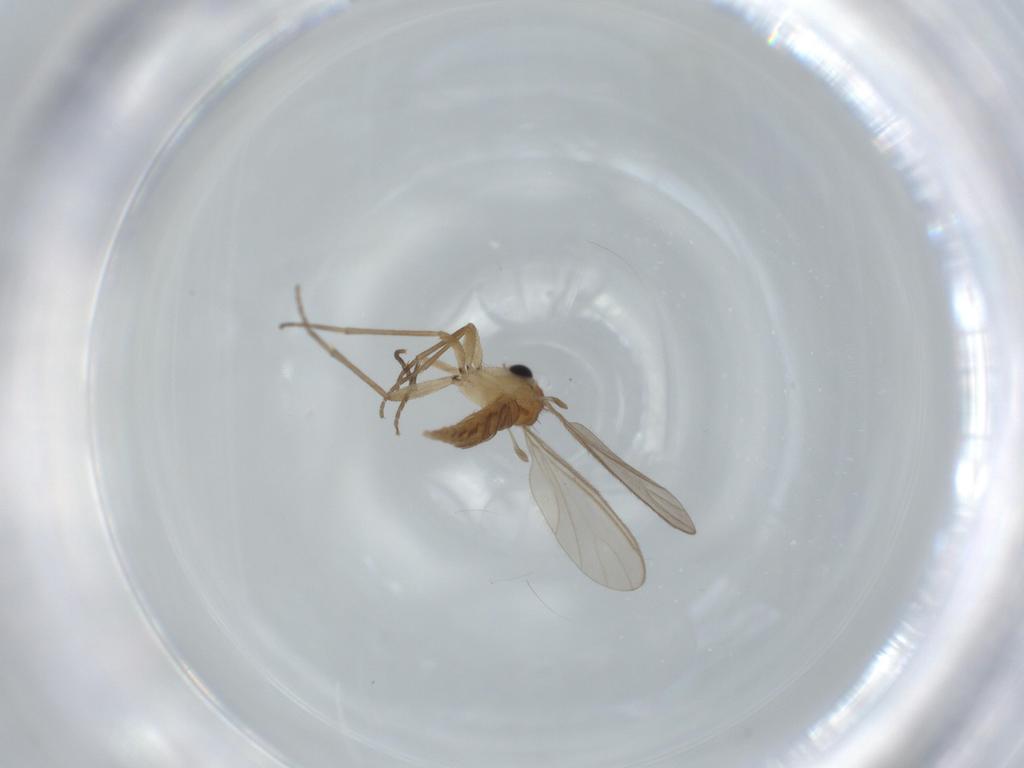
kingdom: Animalia
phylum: Arthropoda
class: Insecta
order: Diptera
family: Sciaridae
